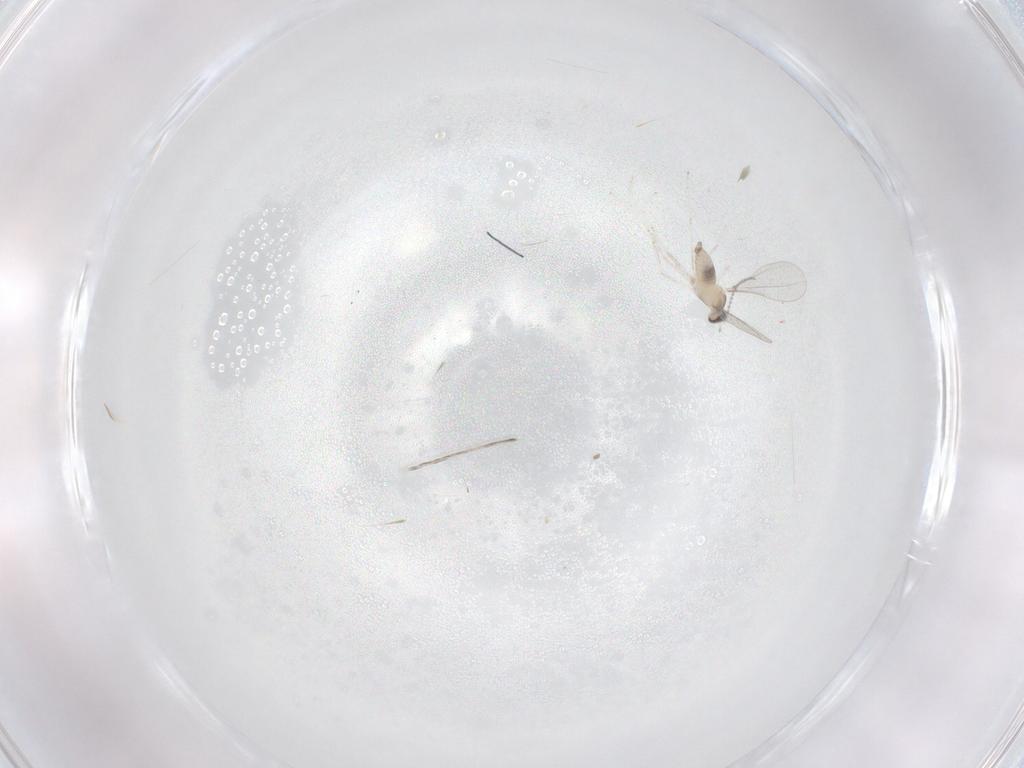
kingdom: Animalia
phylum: Arthropoda
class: Insecta
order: Diptera
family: Cecidomyiidae
